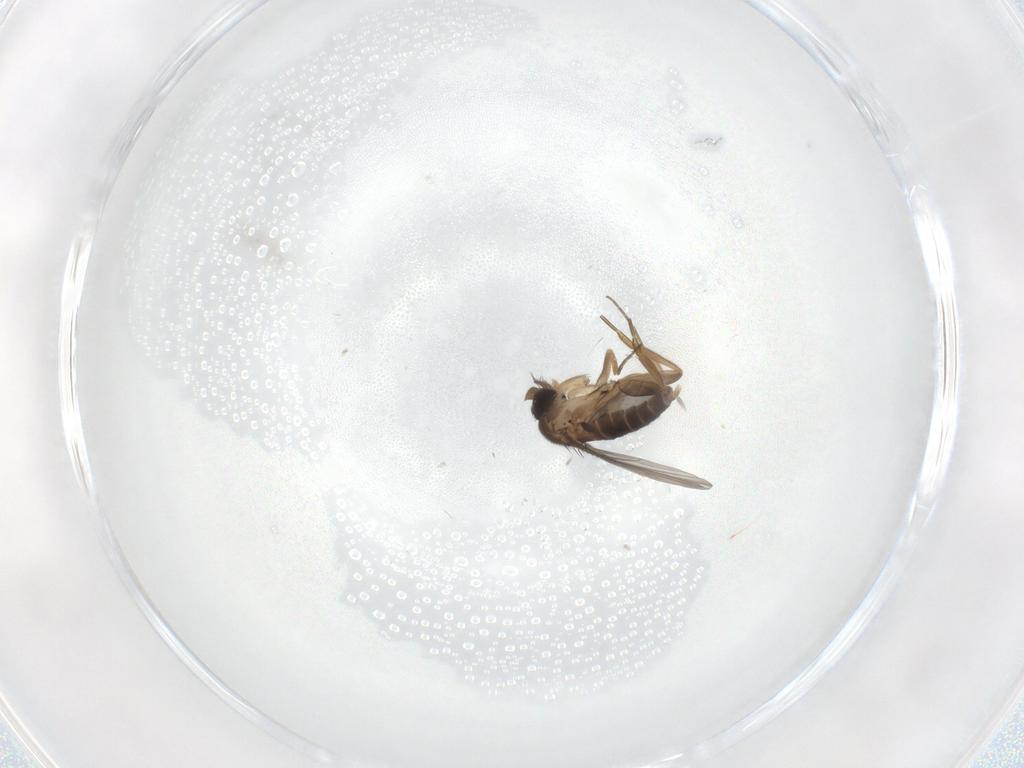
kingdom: Animalia
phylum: Arthropoda
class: Insecta
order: Diptera
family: Phoridae
